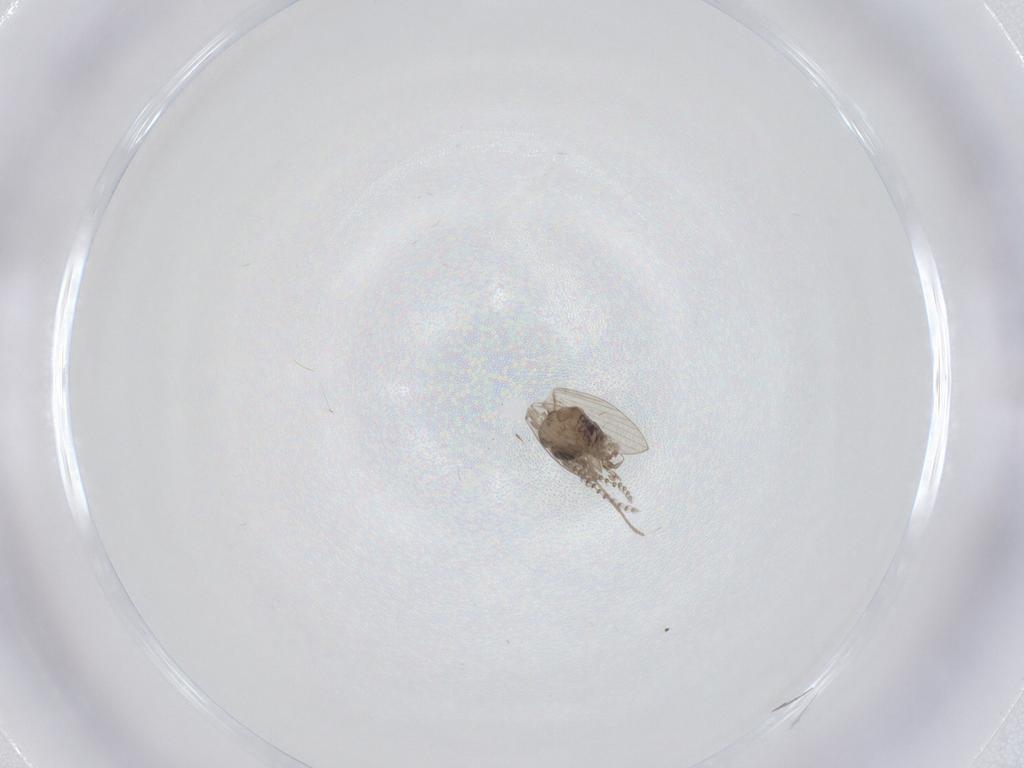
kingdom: Animalia
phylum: Arthropoda
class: Insecta
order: Diptera
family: Psychodidae
